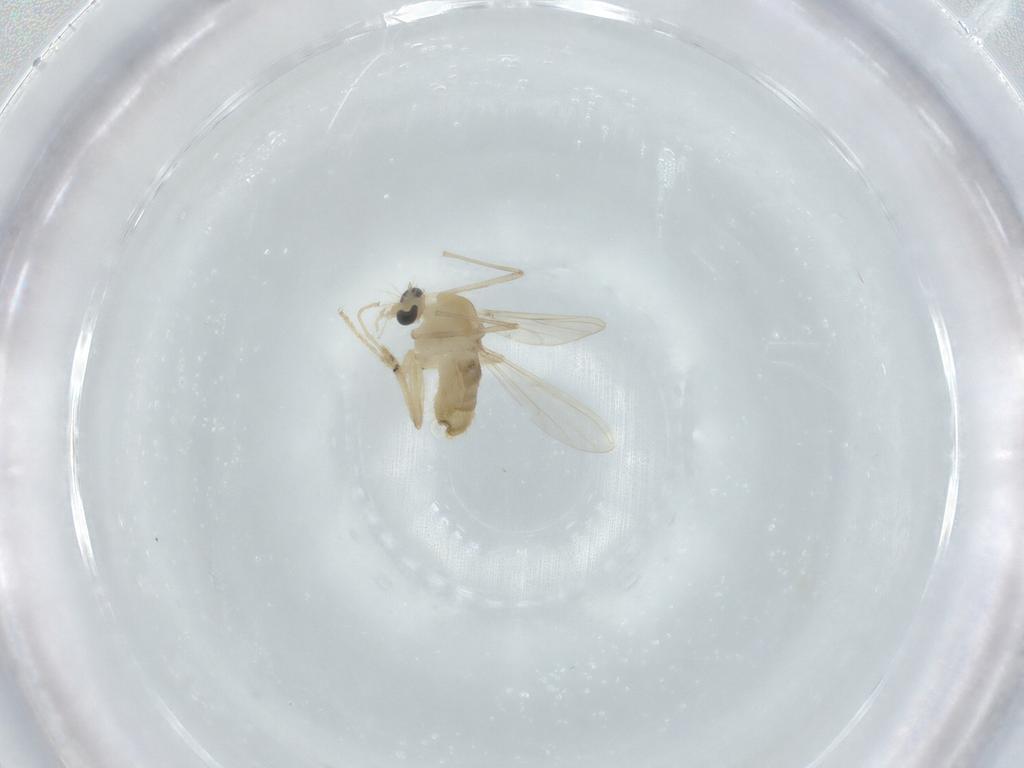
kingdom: Animalia
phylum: Arthropoda
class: Insecta
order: Diptera
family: Chironomidae
